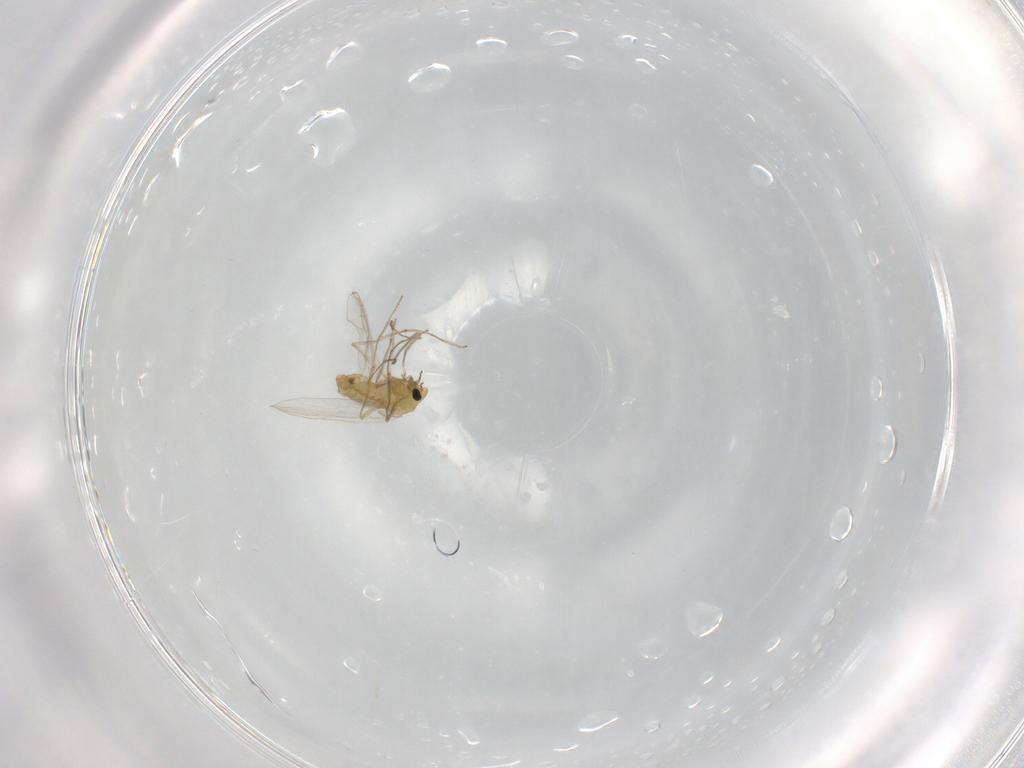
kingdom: Animalia
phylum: Arthropoda
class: Insecta
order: Diptera
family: Chironomidae
